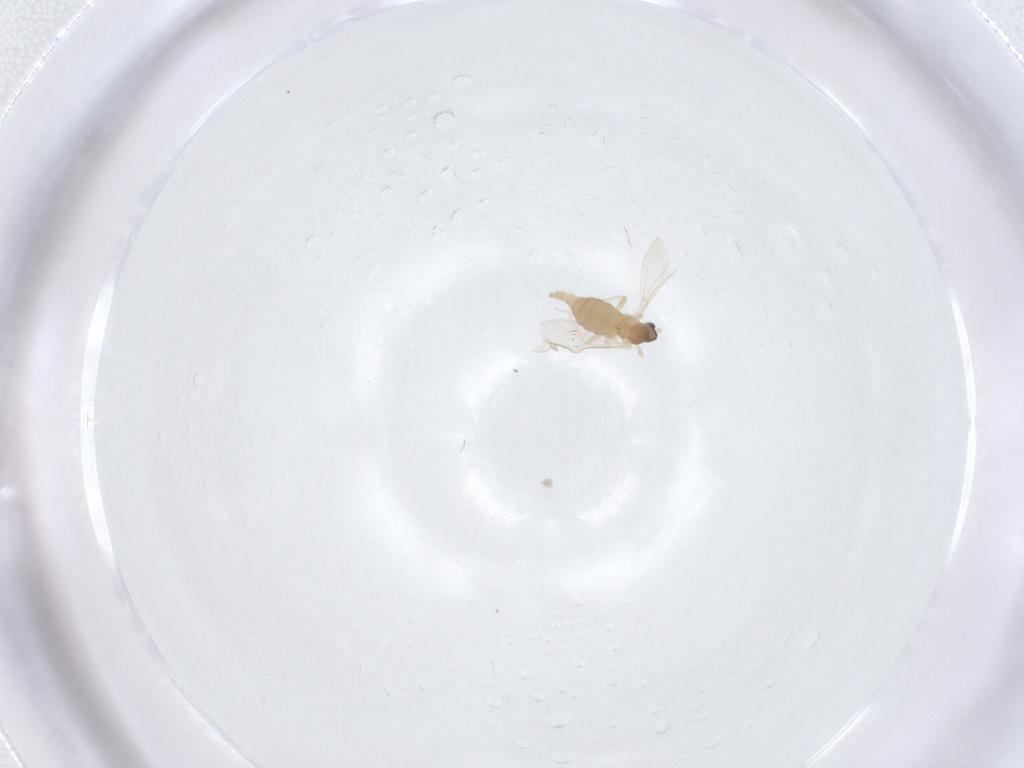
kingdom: Animalia
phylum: Arthropoda
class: Insecta
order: Diptera
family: Cecidomyiidae
